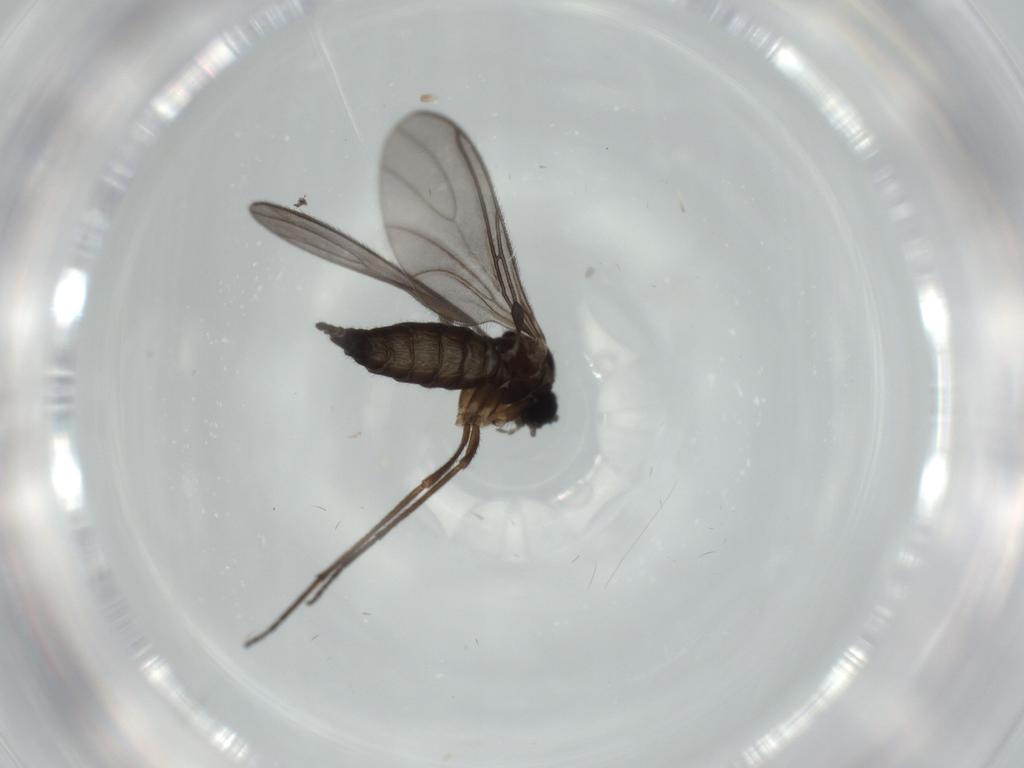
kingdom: Animalia
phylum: Arthropoda
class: Insecta
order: Diptera
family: Sciaridae
